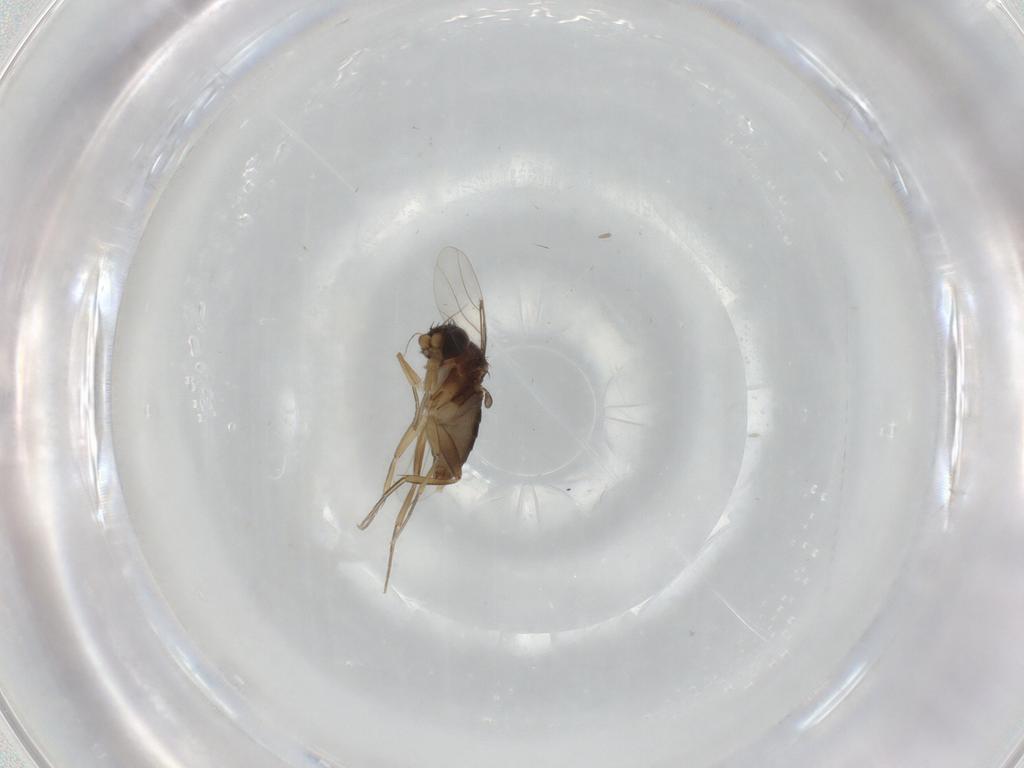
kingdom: Animalia
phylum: Arthropoda
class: Insecta
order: Diptera
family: Phoridae
